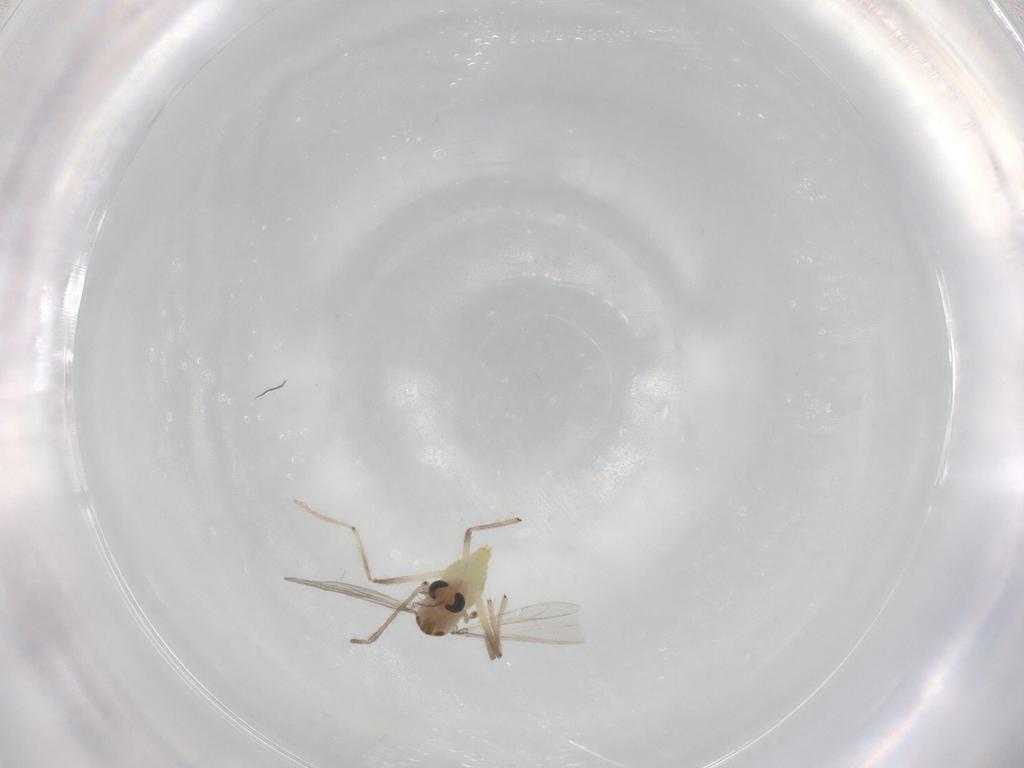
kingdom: Animalia
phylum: Arthropoda
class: Insecta
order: Diptera
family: Chironomidae
